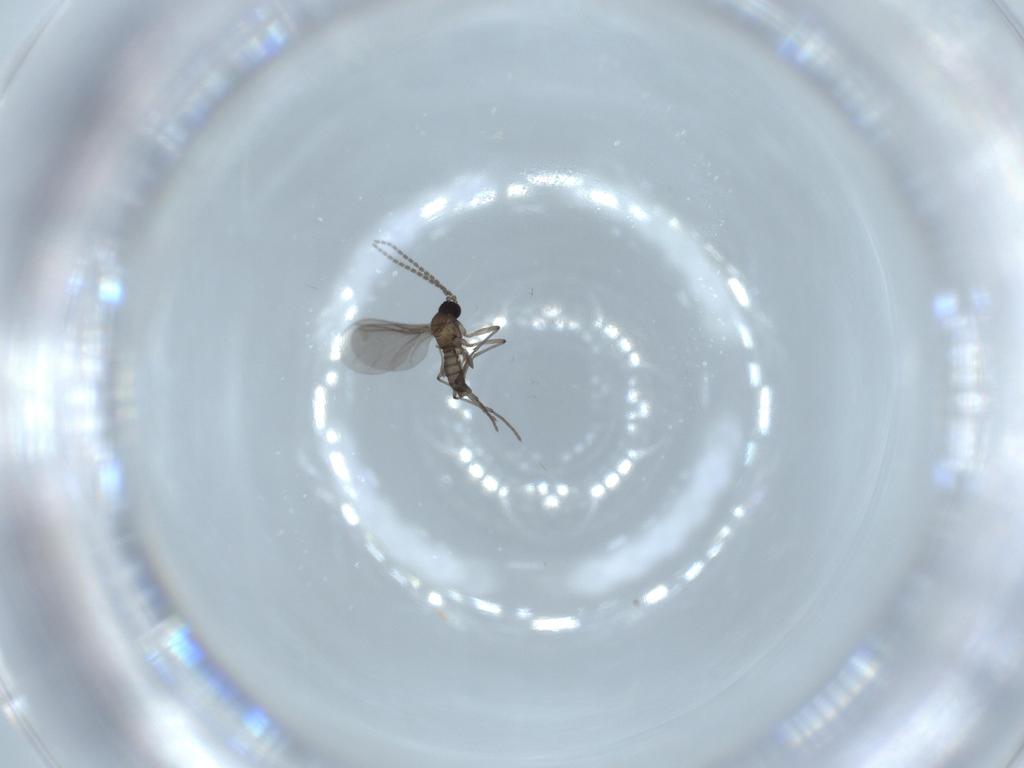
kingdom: Animalia
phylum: Arthropoda
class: Insecta
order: Diptera
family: Sciaridae
